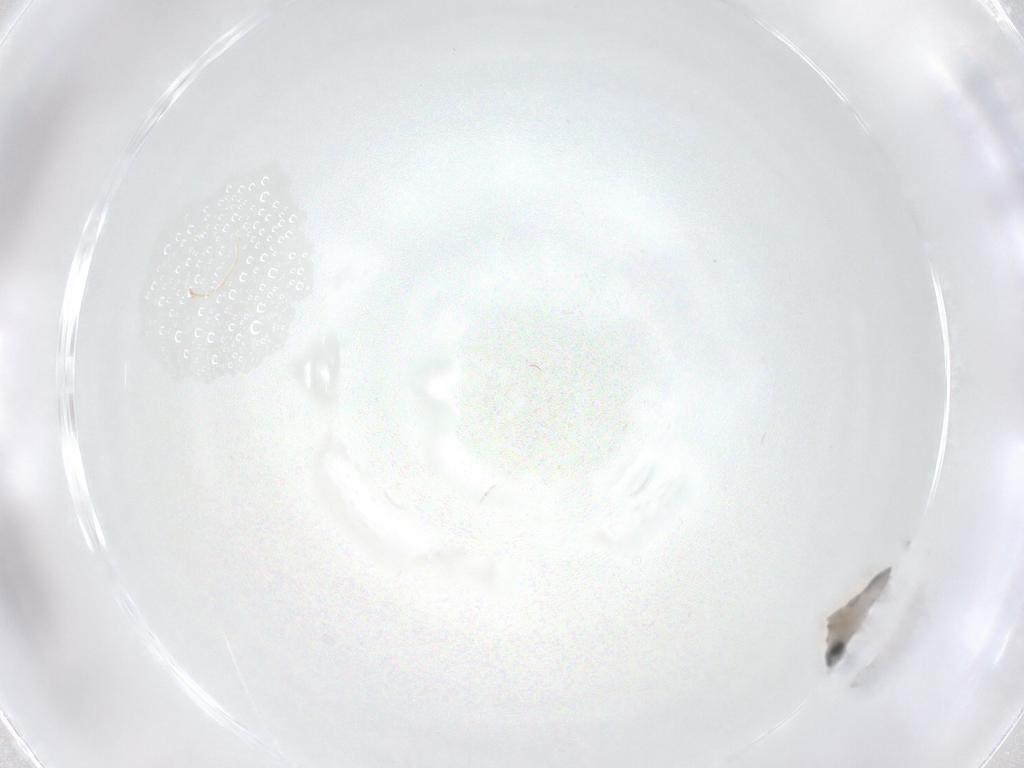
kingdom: Animalia
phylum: Arthropoda
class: Insecta
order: Diptera
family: Cecidomyiidae
